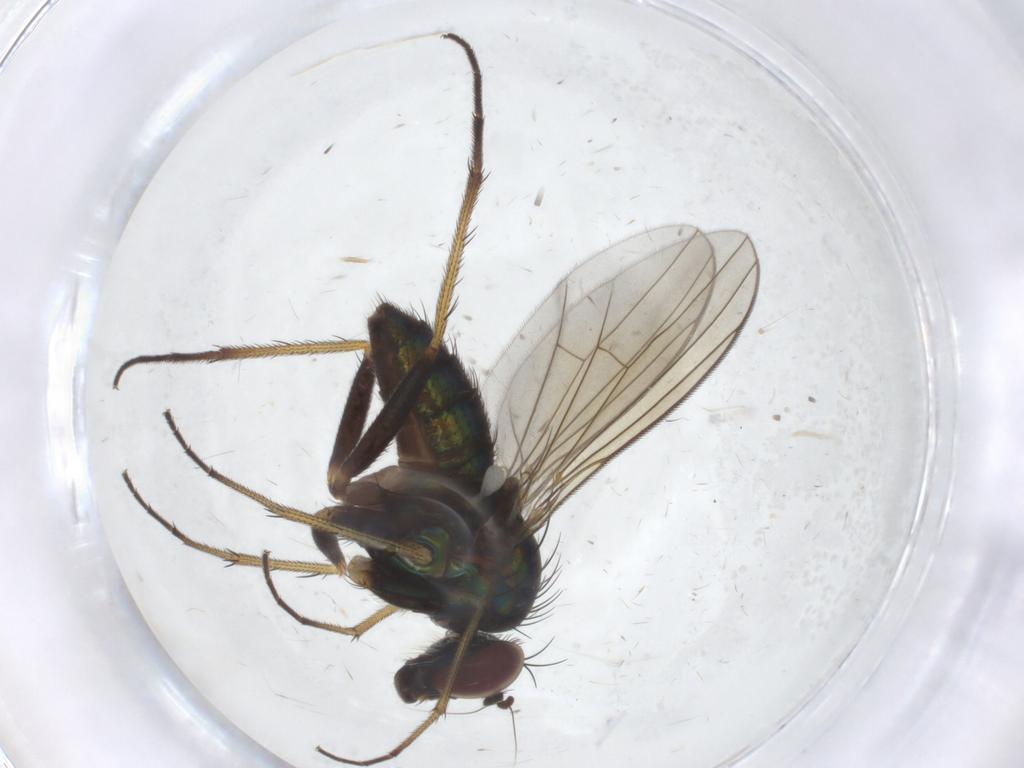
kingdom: Animalia
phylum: Arthropoda
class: Insecta
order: Diptera
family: Dolichopodidae
